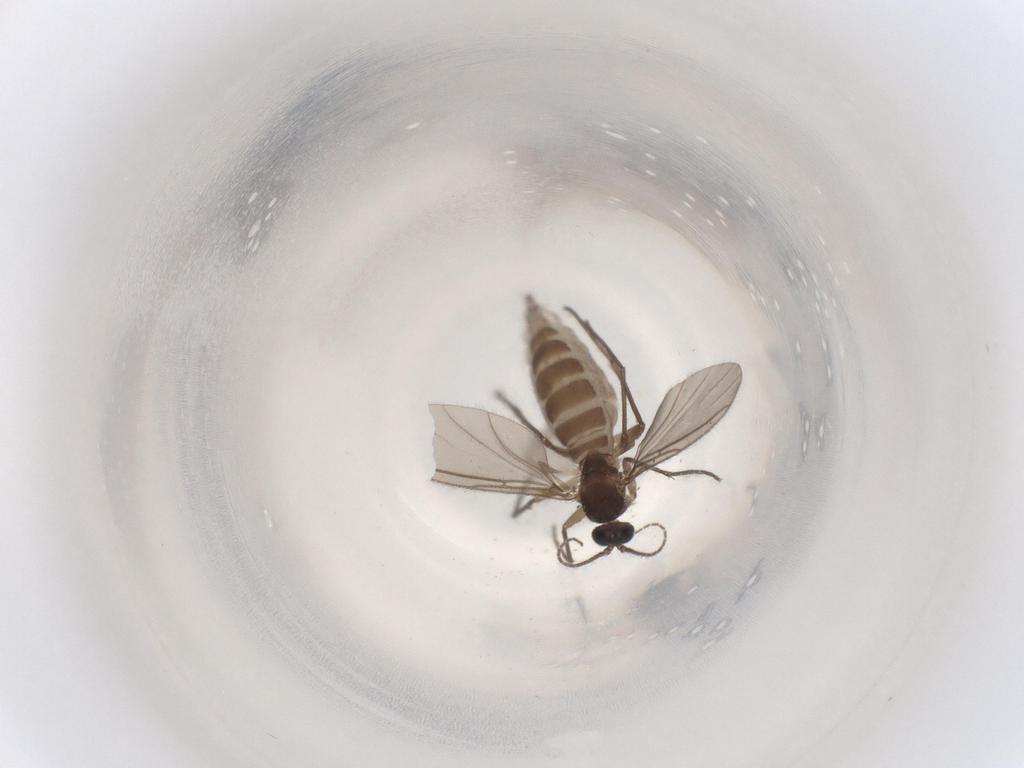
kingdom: Animalia
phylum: Arthropoda
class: Insecta
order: Diptera
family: Sciaridae
